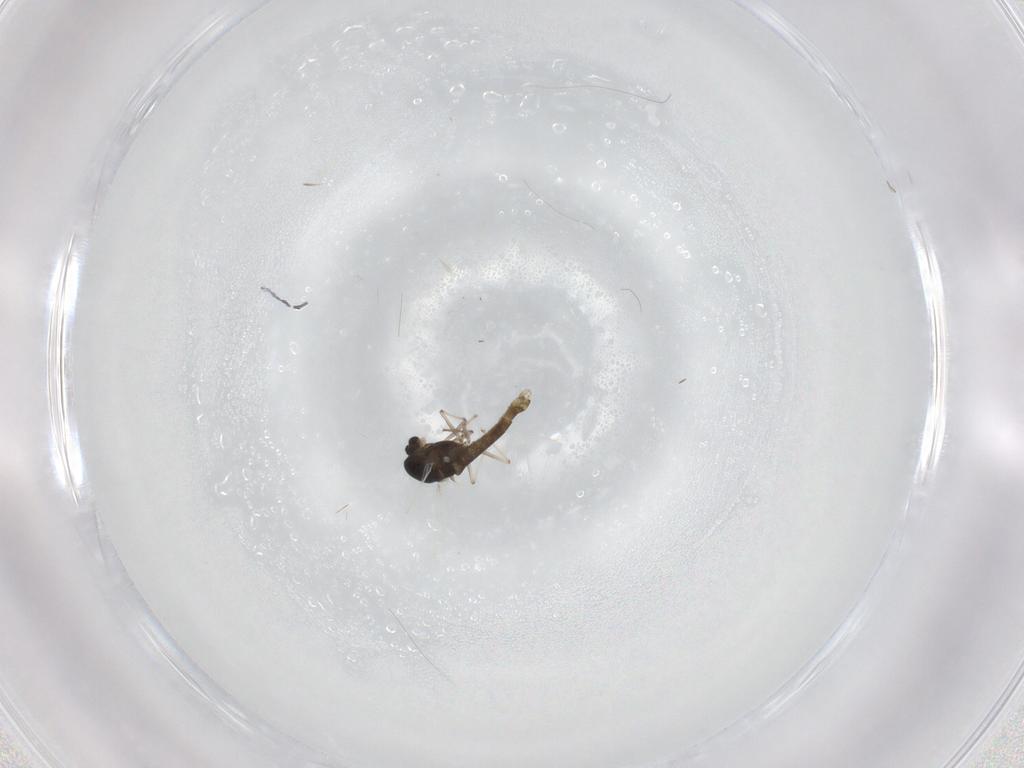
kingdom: Animalia
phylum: Arthropoda
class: Insecta
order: Diptera
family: Chironomidae
